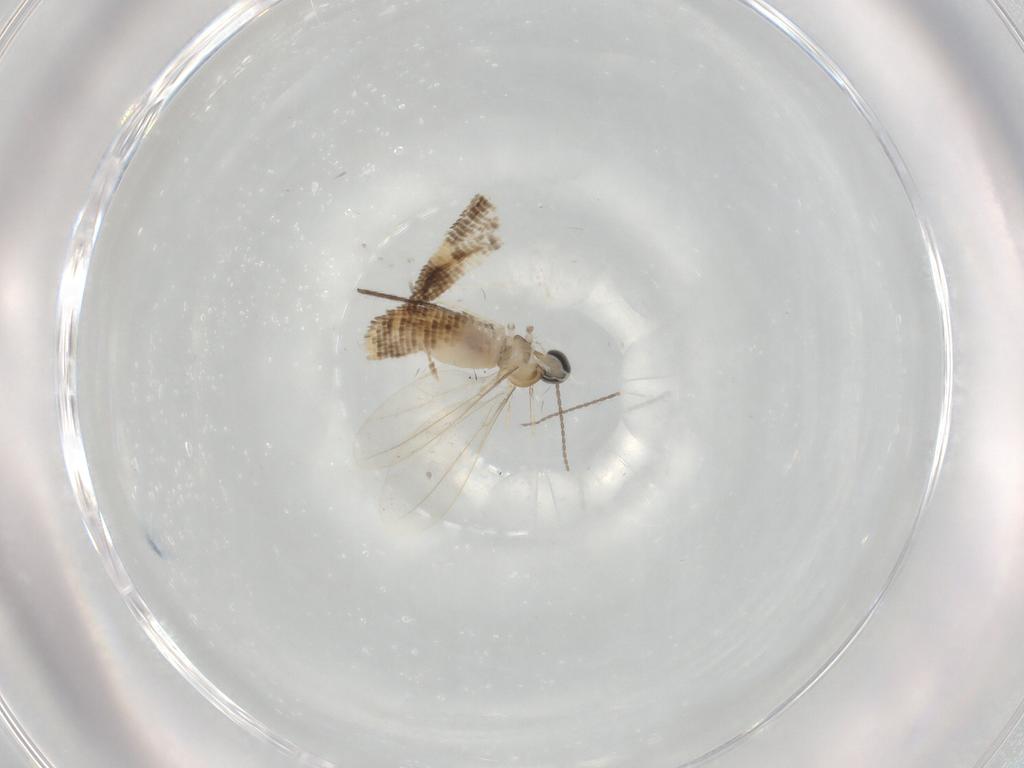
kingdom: Animalia
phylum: Arthropoda
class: Insecta
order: Diptera
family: Cecidomyiidae
